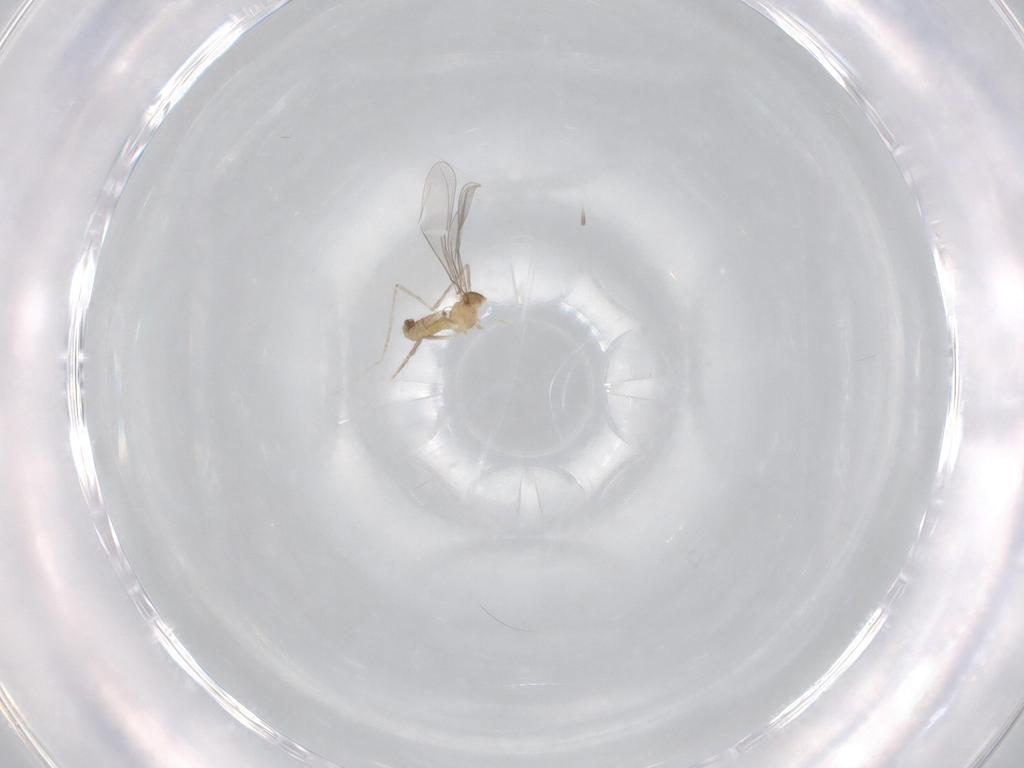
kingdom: Animalia
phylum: Arthropoda
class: Insecta
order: Diptera
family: Cecidomyiidae
